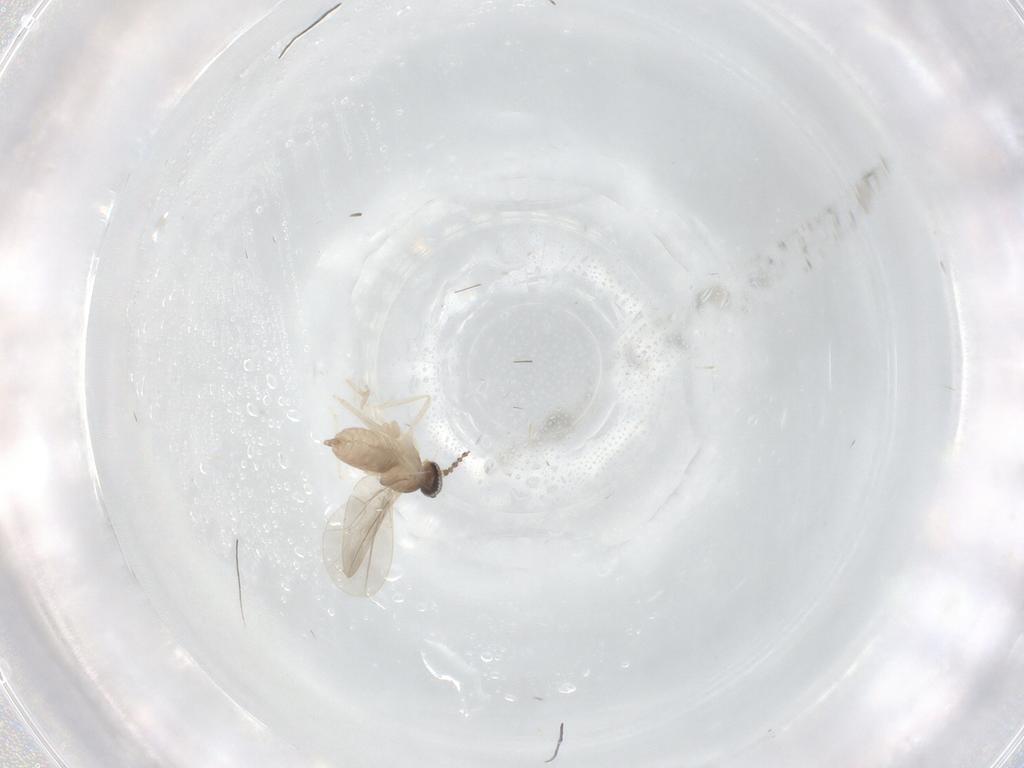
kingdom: Animalia
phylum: Arthropoda
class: Insecta
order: Diptera
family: Cecidomyiidae
